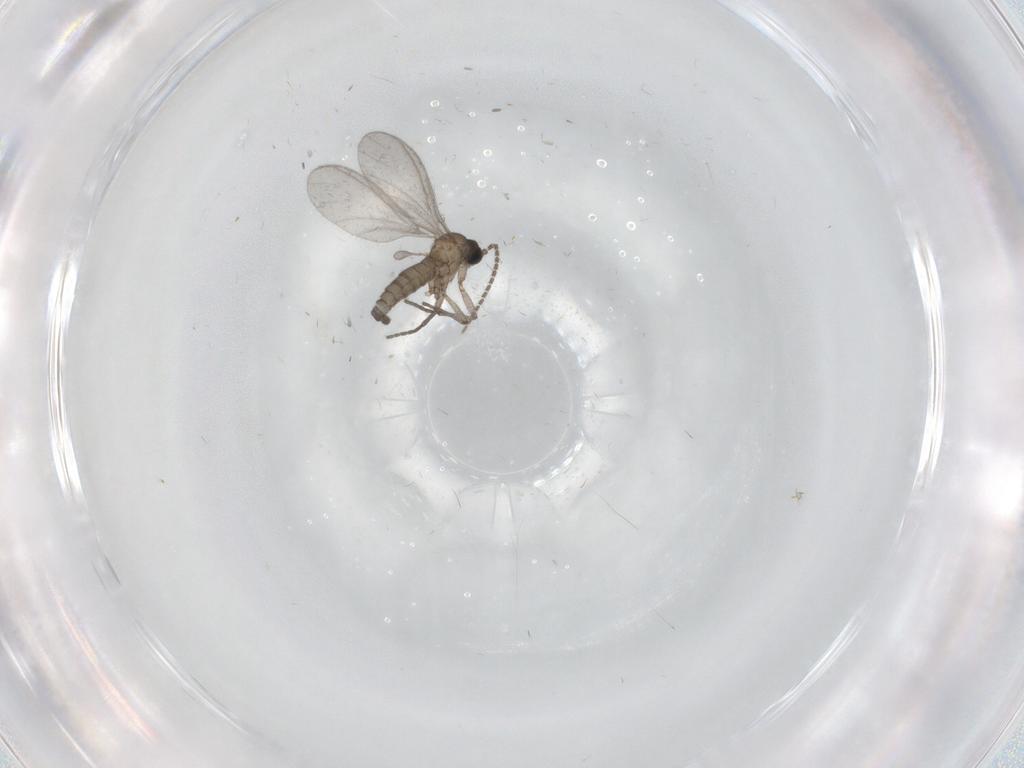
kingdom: Animalia
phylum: Arthropoda
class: Insecta
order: Diptera
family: Sciaridae
